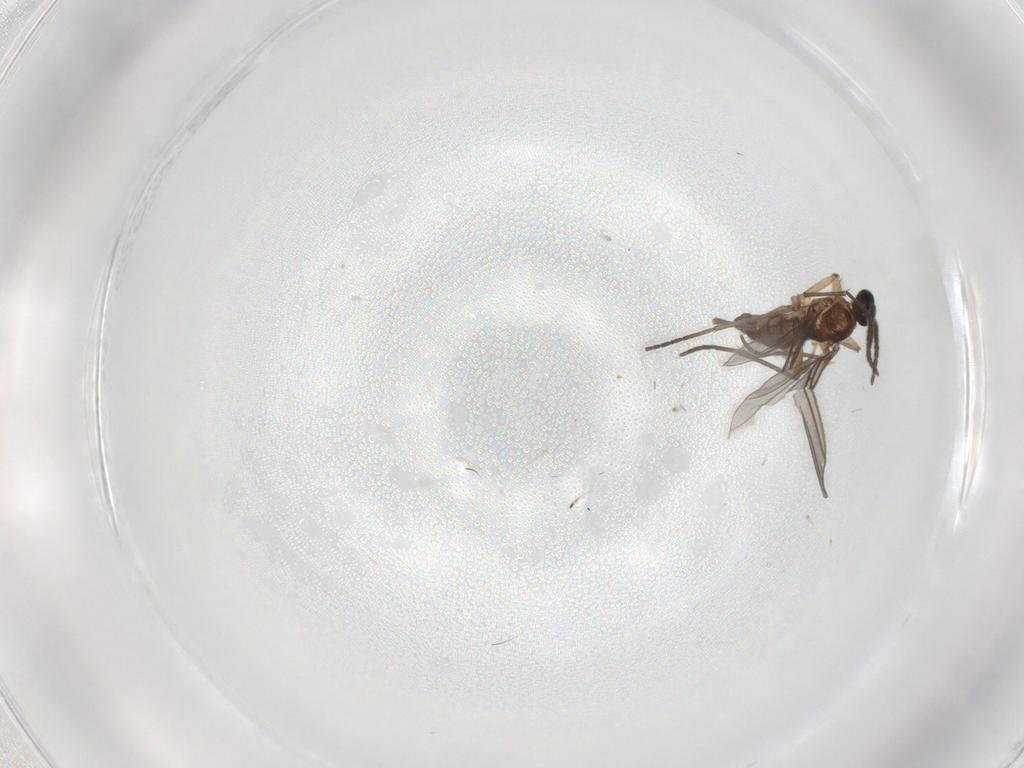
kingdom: Animalia
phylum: Arthropoda
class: Insecta
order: Diptera
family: Sciaridae
